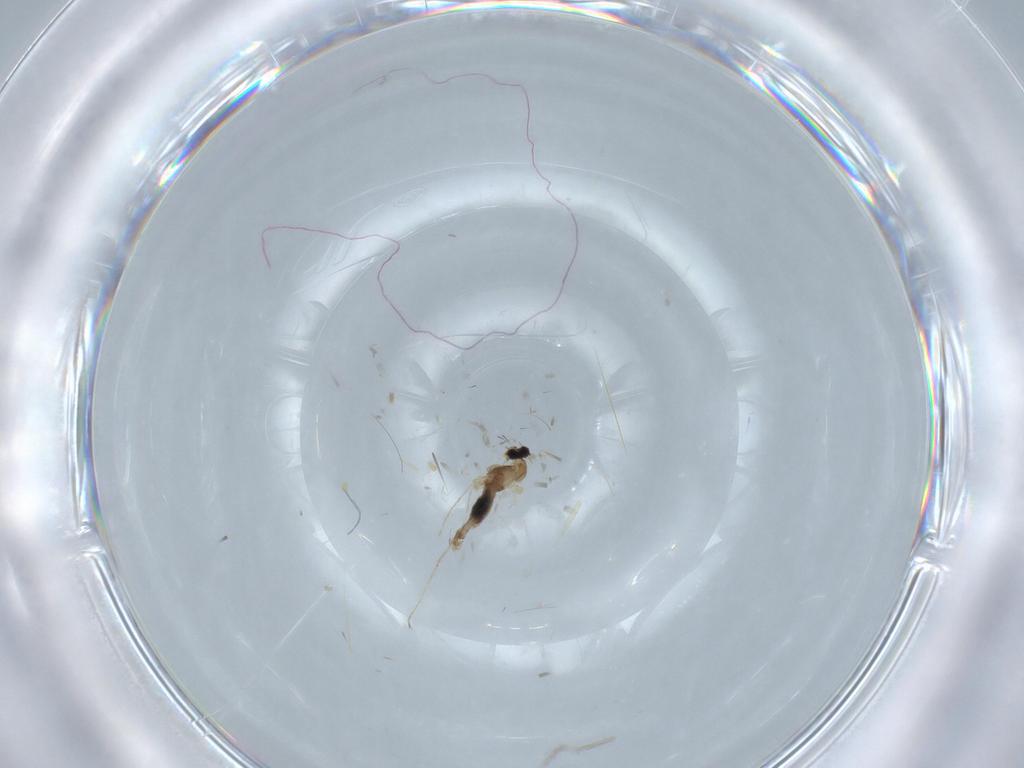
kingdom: Animalia
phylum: Arthropoda
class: Insecta
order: Diptera
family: Cecidomyiidae
